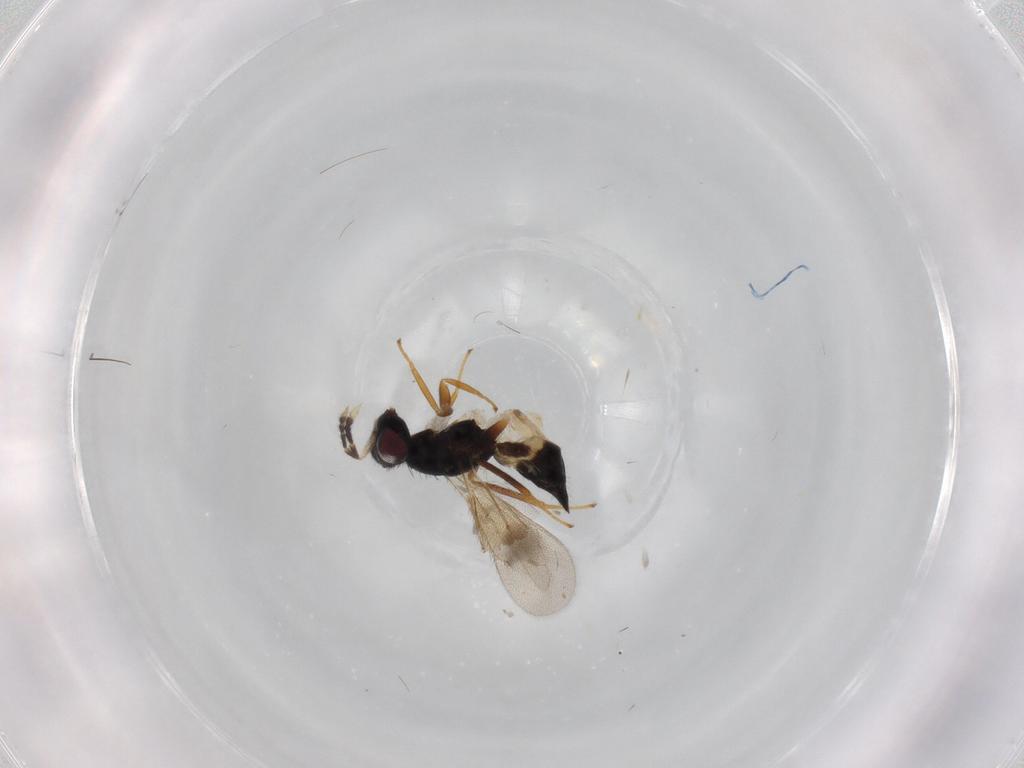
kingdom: Animalia
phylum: Arthropoda
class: Insecta
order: Hymenoptera
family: Eulophidae
